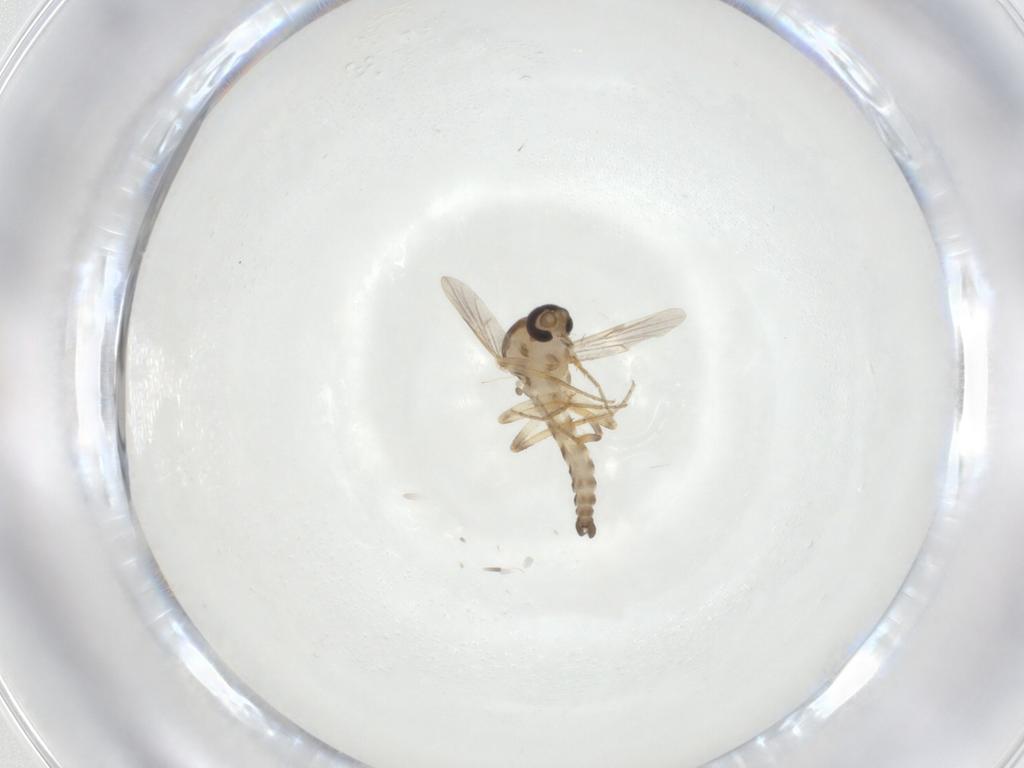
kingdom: Animalia
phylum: Arthropoda
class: Insecta
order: Diptera
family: Ceratopogonidae
